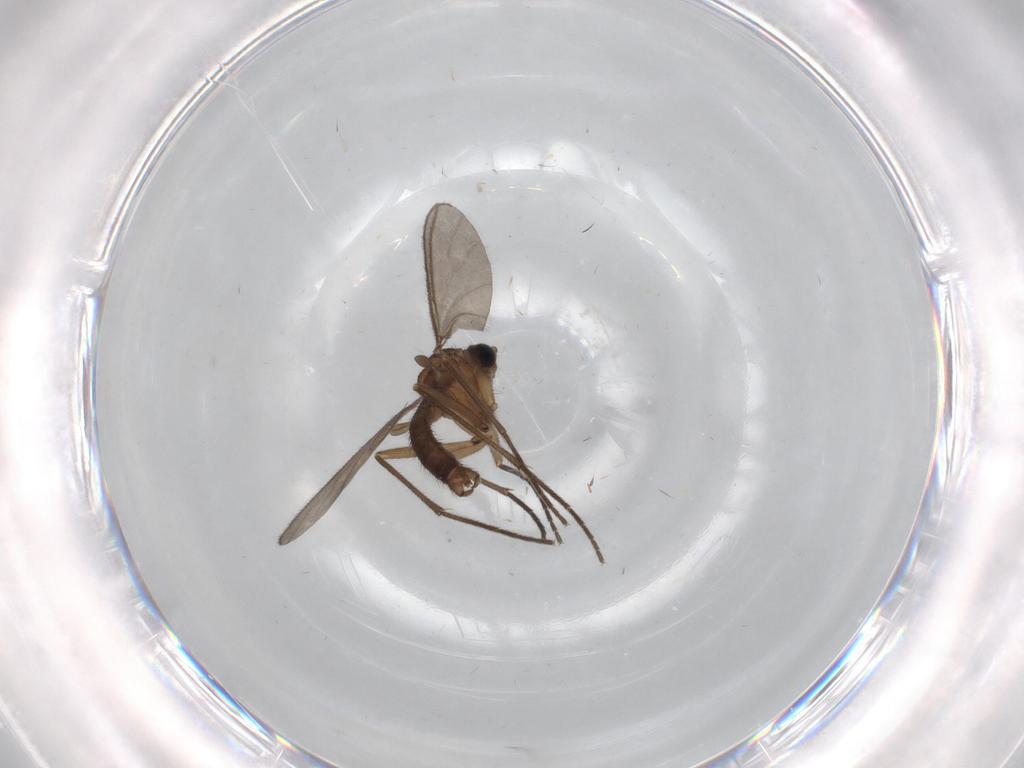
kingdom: Animalia
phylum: Arthropoda
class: Insecta
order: Diptera
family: Sciaridae
